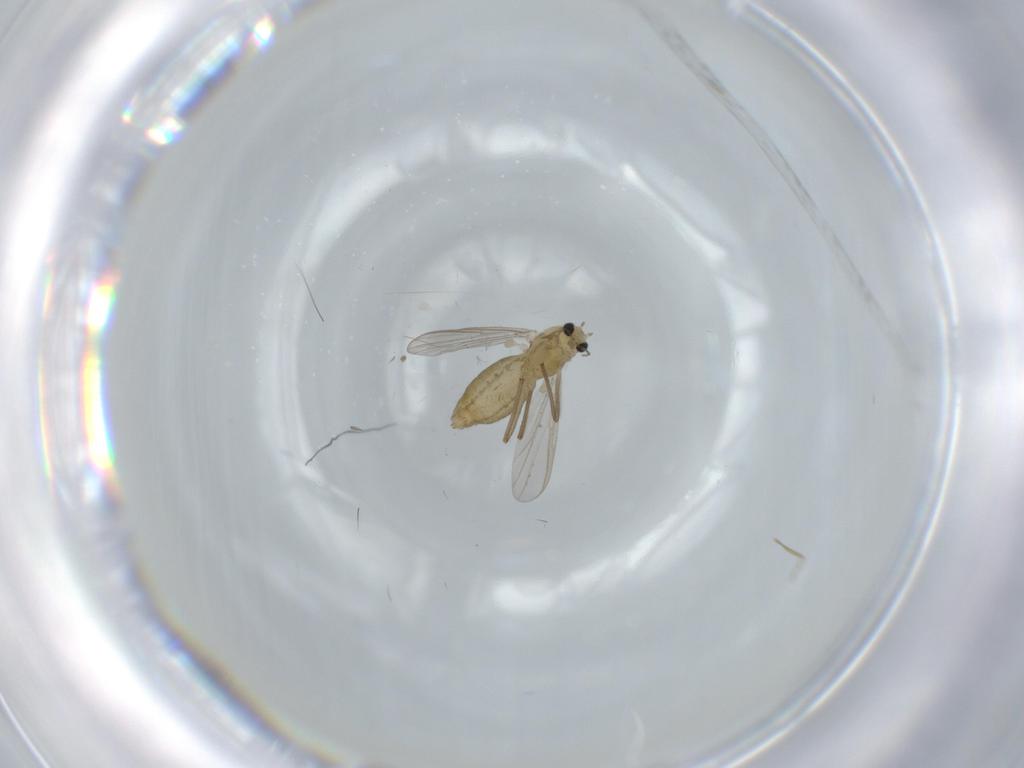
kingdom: Animalia
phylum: Arthropoda
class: Insecta
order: Diptera
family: Chironomidae
